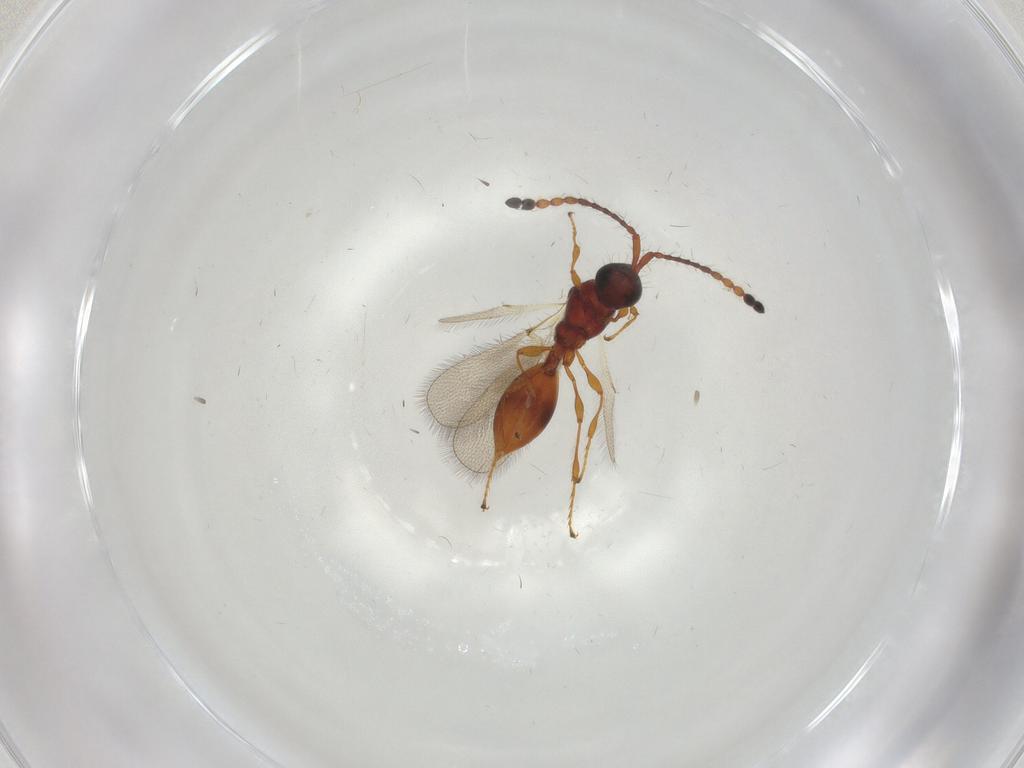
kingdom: Animalia
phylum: Arthropoda
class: Insecta
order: Hymenoptera
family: Diapriidae
